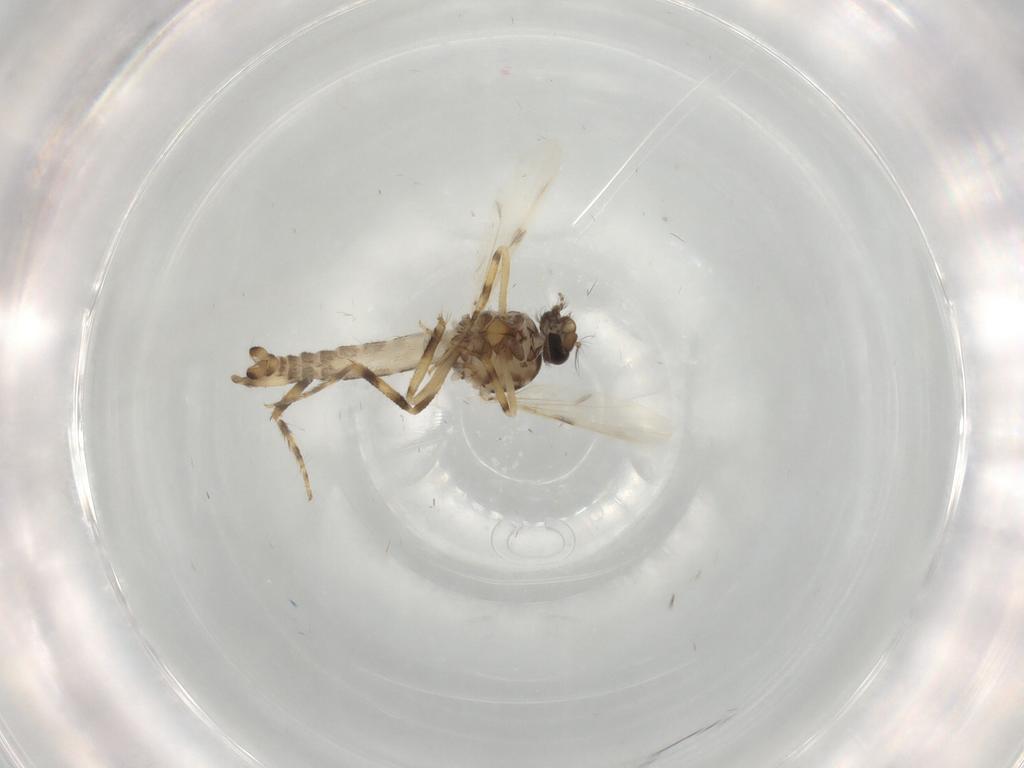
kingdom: Animalia
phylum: Arthropoda
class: Insecta
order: Diptera
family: Ceratopogonidae
